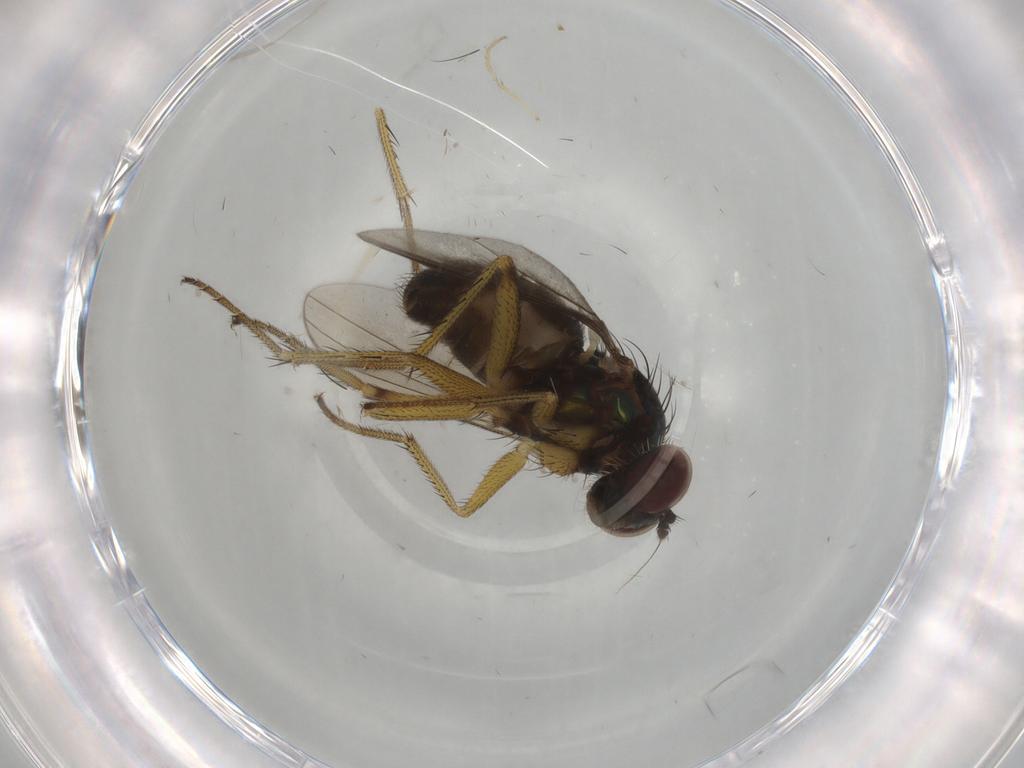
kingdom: Animalia
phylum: Arthropoda
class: Insecta
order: Diptera
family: Dolichopodidae
